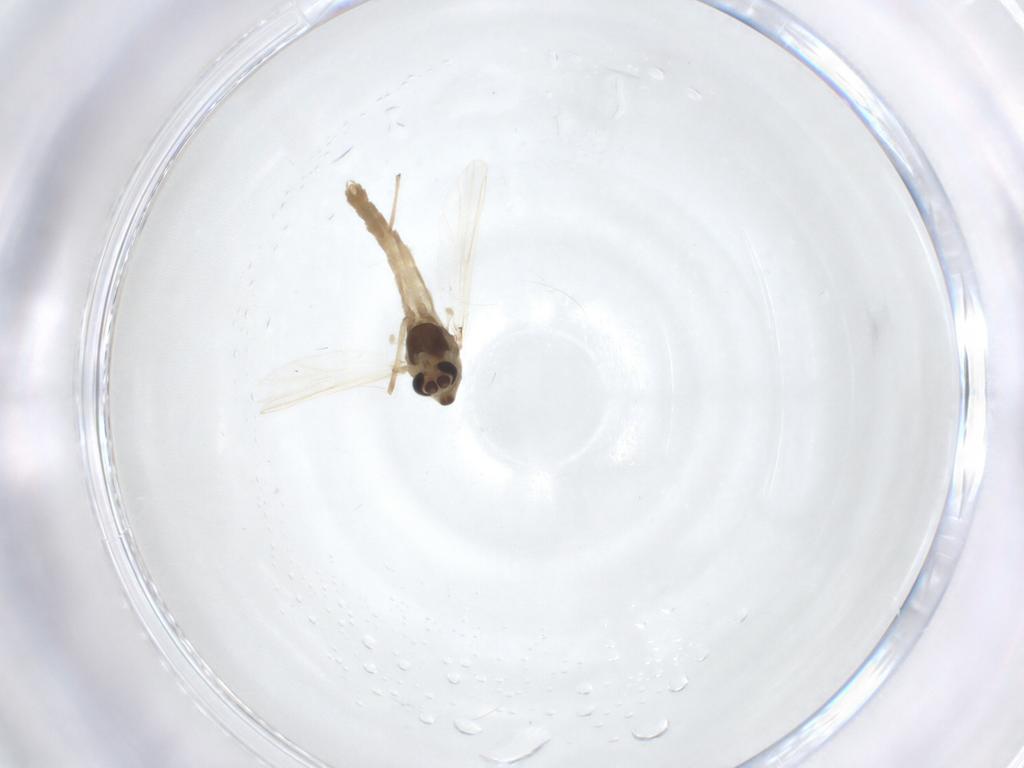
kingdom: Animalia
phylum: Arthropoda
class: Insecta
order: Diptera
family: Chironomidae
